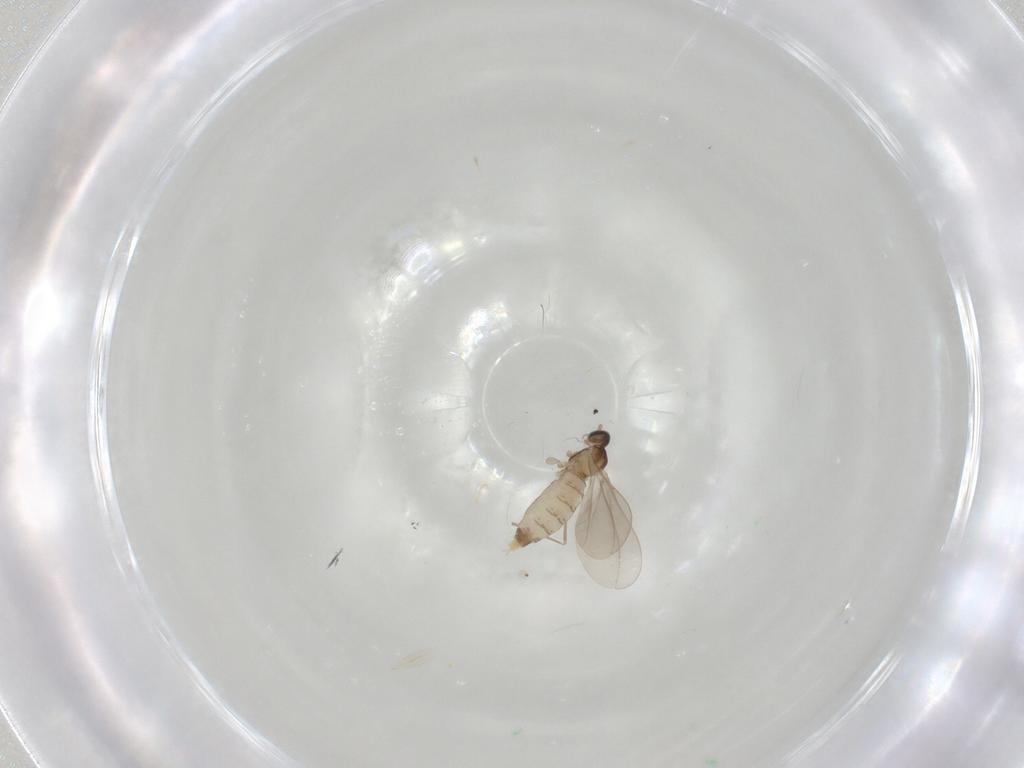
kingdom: Animalia
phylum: Arthropoda
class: Insecta
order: Diptera
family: Cecidomyiidae
